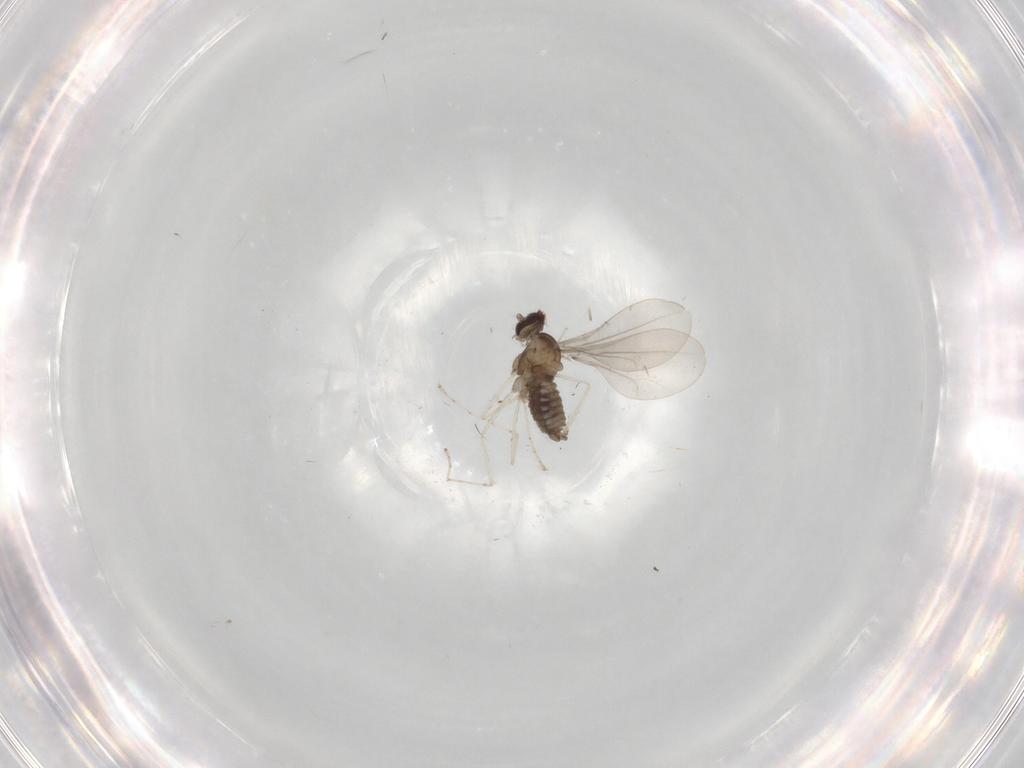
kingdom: Animalia
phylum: Arthropoda
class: Insecta
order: Diptera
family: Cecidomyiidae
